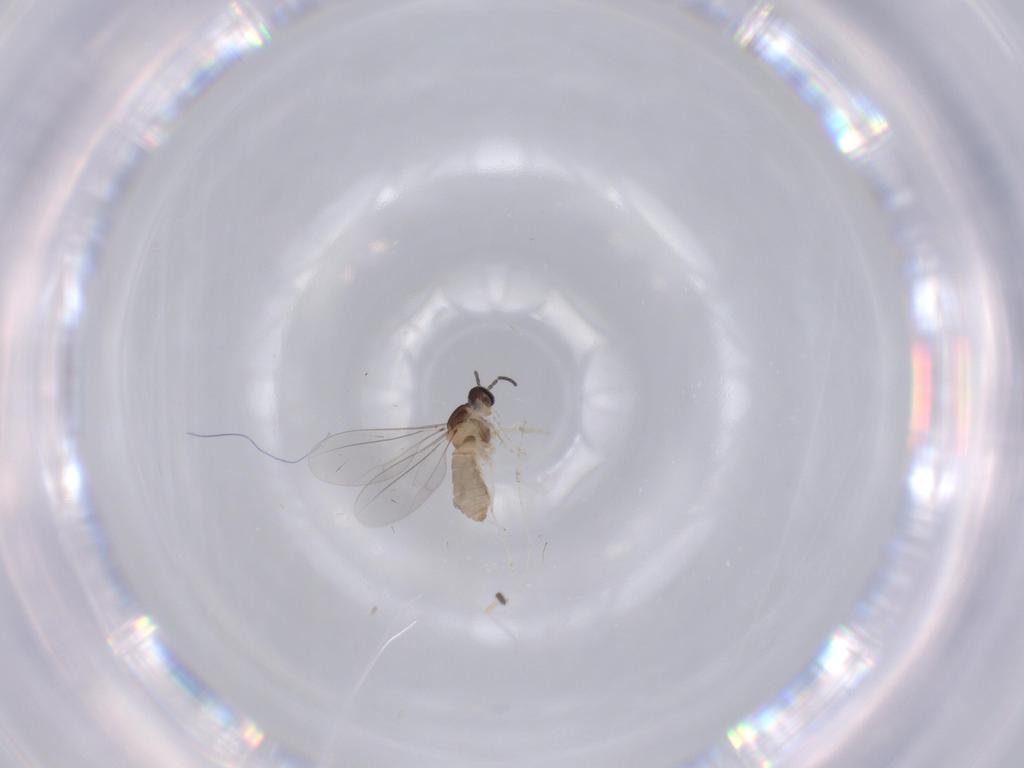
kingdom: Animalia
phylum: Arthropoda
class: Insecta
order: Diptera
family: Cecidomyiidae
